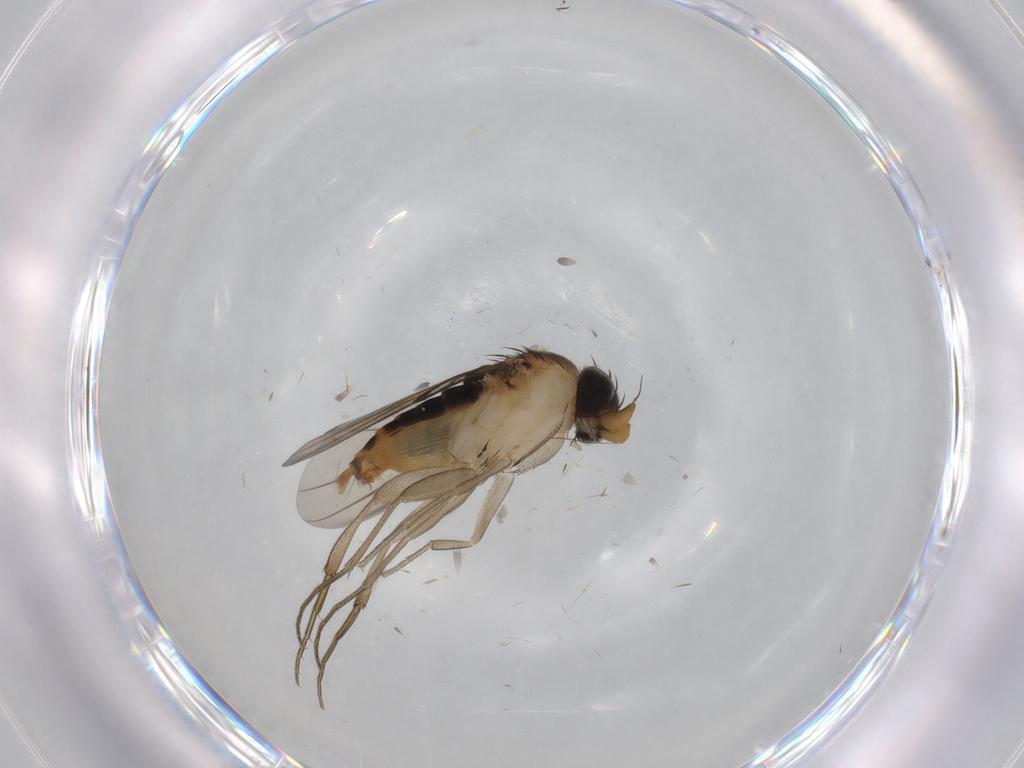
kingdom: Animalia
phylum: Arthropoda
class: Insecta
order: Diptera
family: Phoridae
